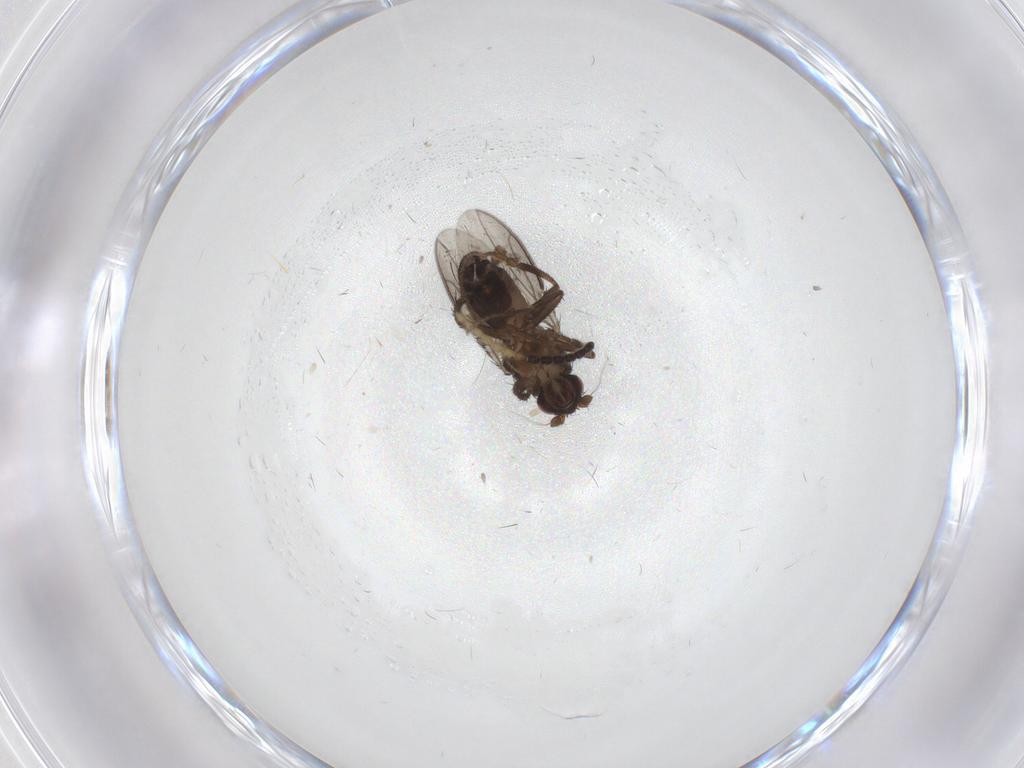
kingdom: Animalia
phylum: Arthropoda
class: Insecta
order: Diptera
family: Sphaeroceridae
